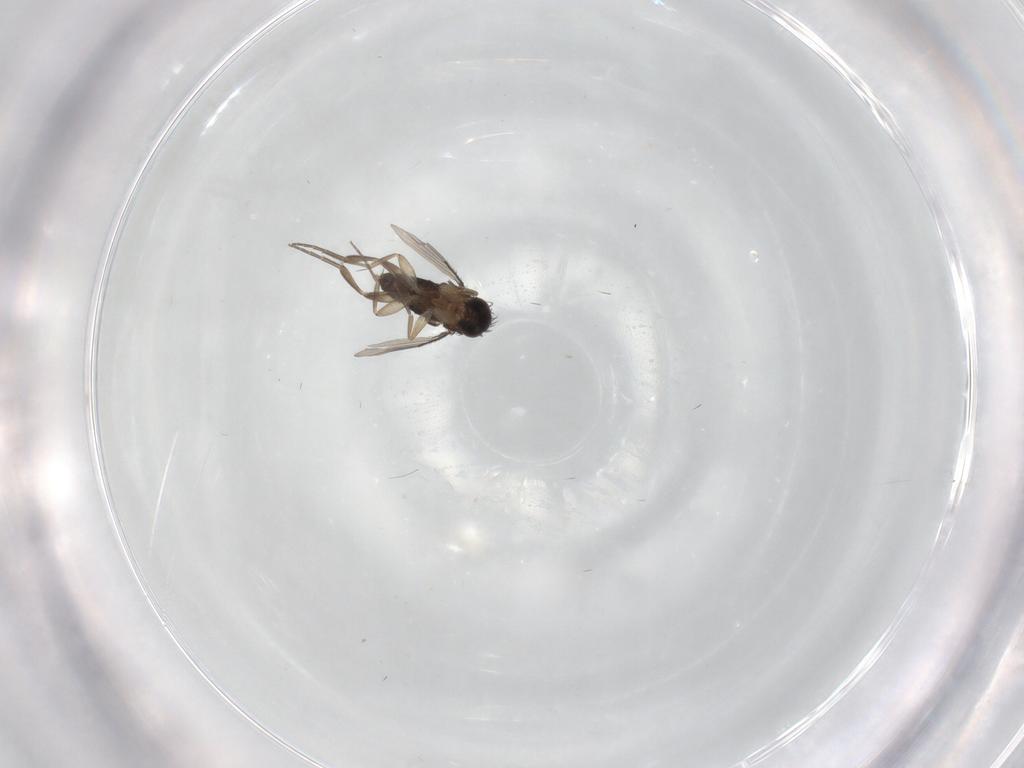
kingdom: Animalia
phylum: Arthropoda
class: Insecta
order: Diptera
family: Phoridae
